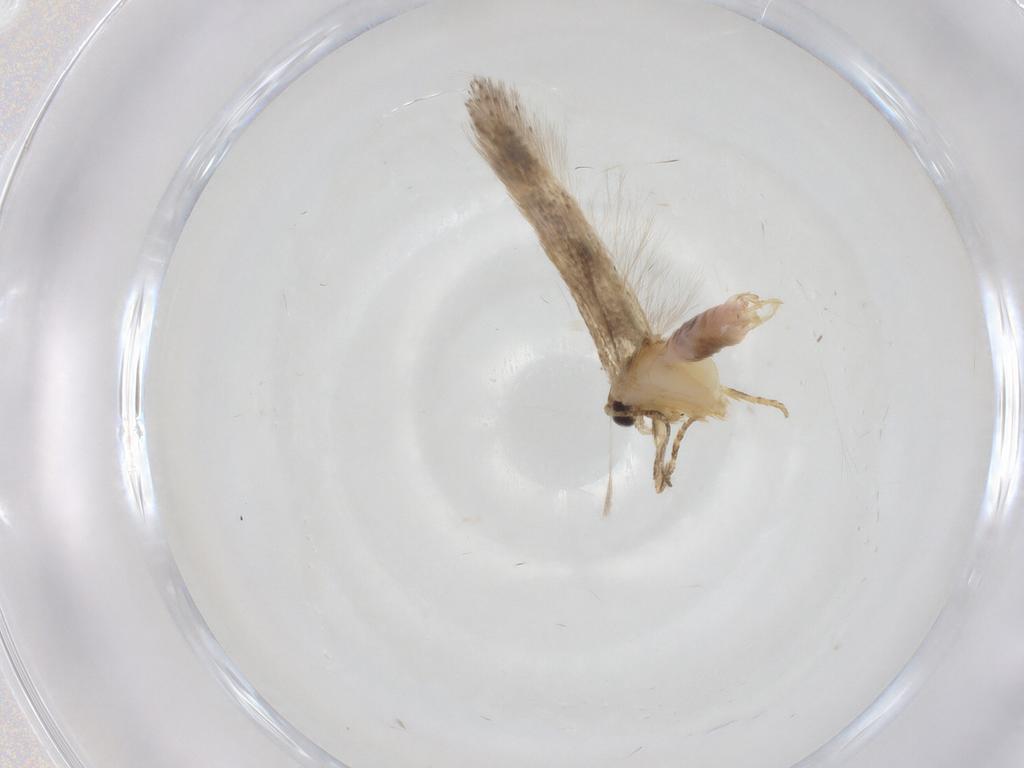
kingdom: Animalia
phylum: Arthropoda
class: Insecta
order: Lepidoptera
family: Gelechiidae
